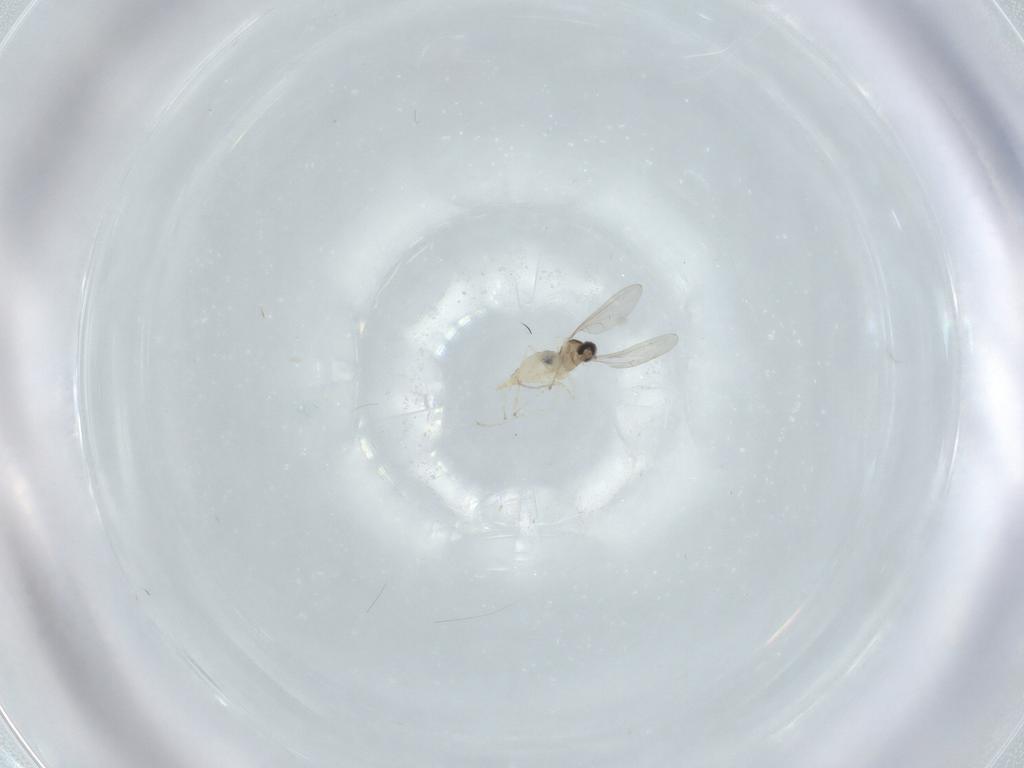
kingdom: Animalia
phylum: Arthropoda
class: Insecta
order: Diptera
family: Cecidomyiidae
